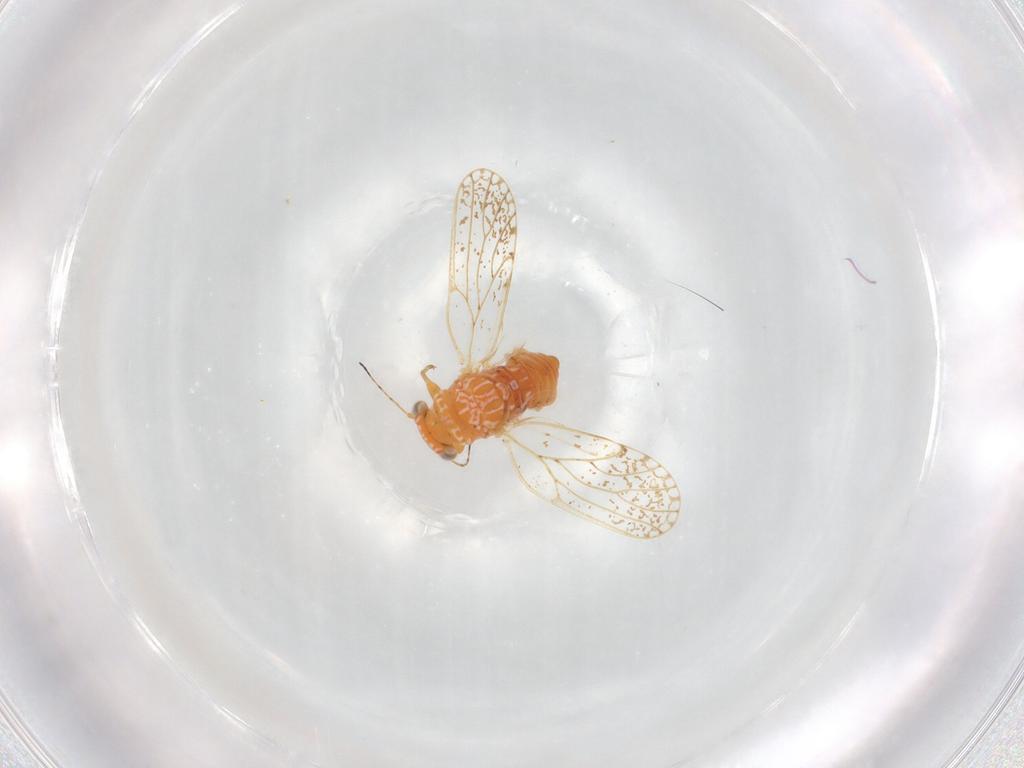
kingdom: Animalia
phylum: Arthropoda
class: Insecta
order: Hemiptera
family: Psyllidae
